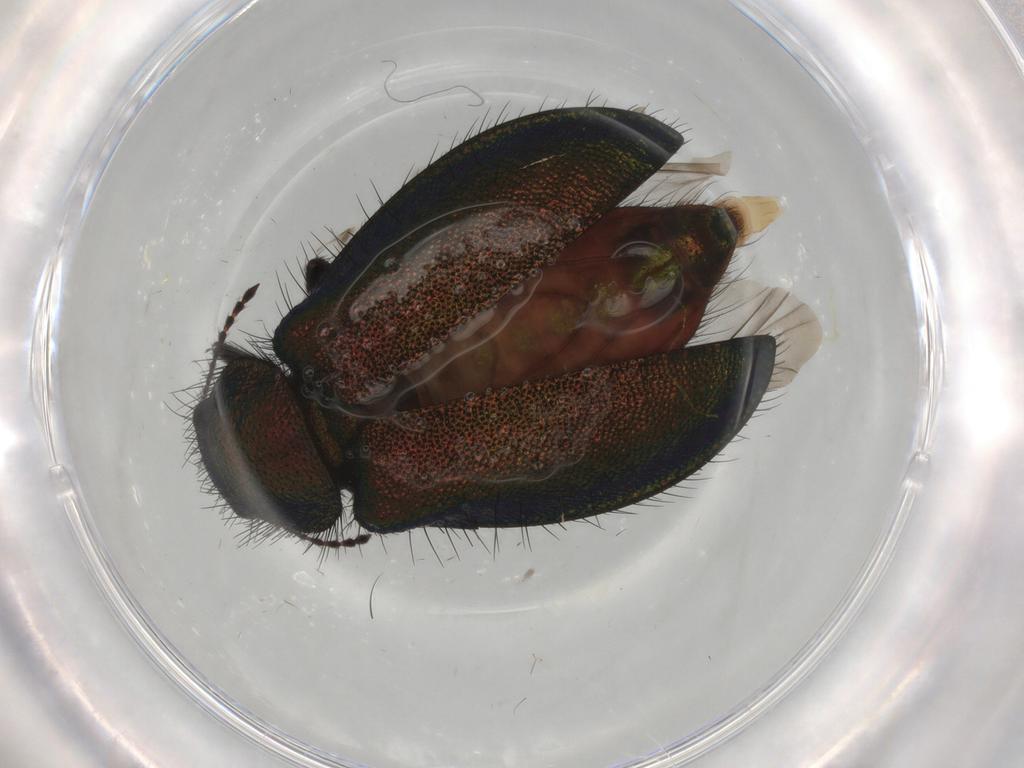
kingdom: Animalia
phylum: Arthropoda
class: Insecta
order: Coleoptera
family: Melyridae
